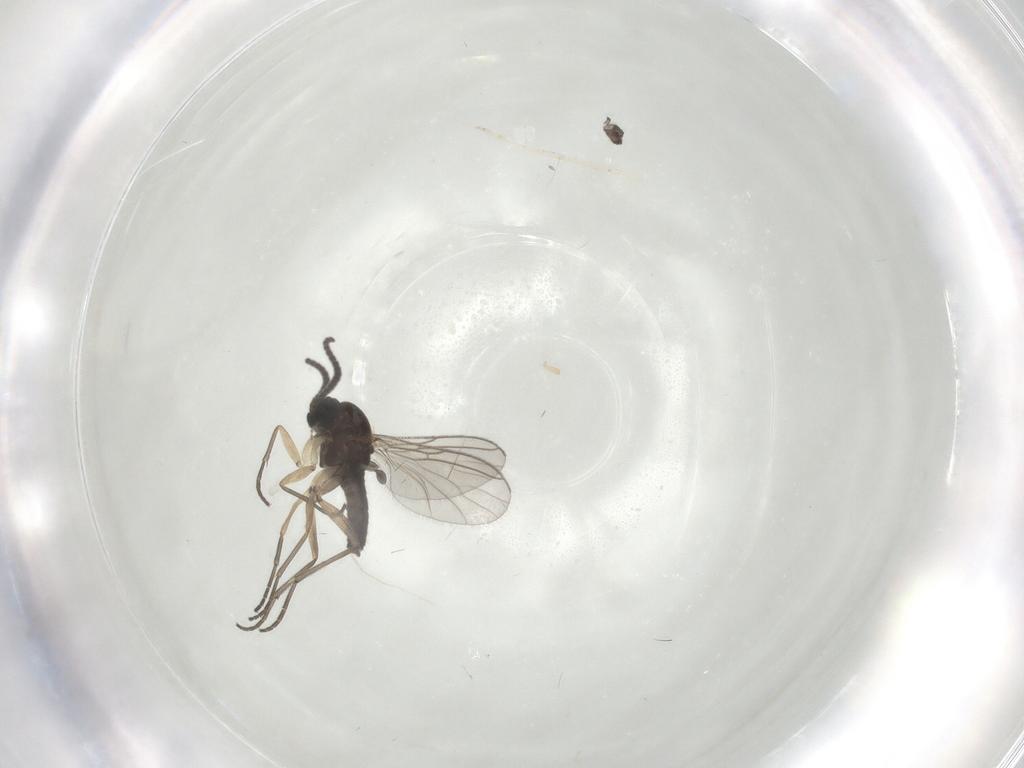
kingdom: Animalia
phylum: Arthropoda
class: Insecta
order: Diptera
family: Sciaridae
